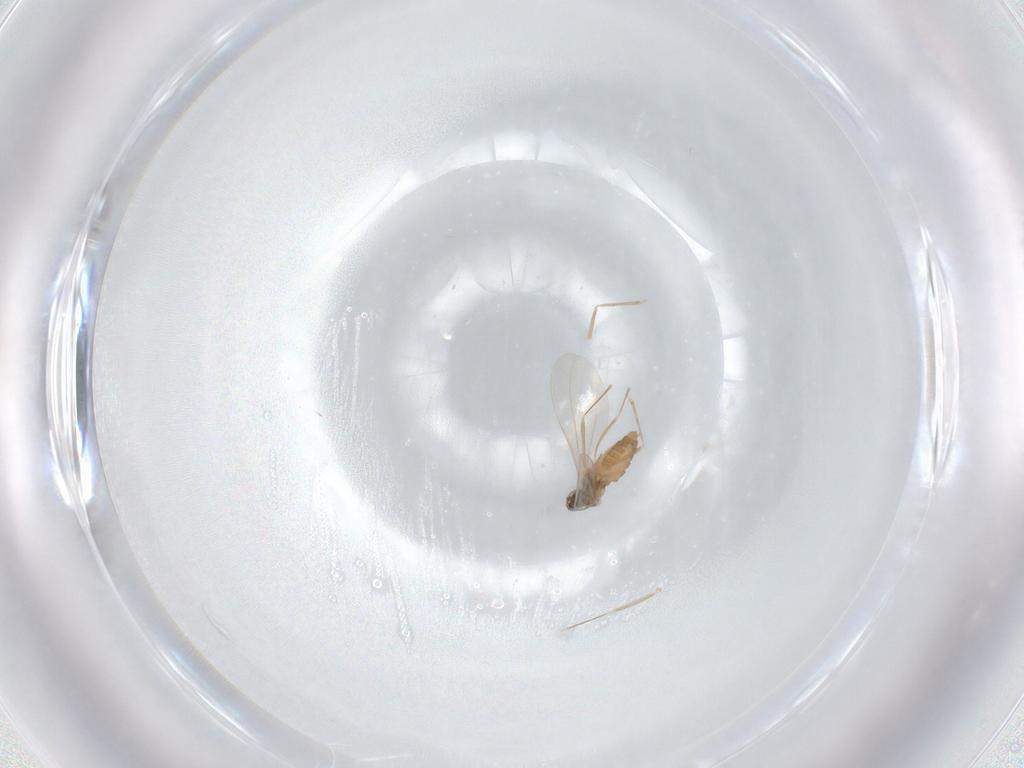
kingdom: Animalia
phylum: Arthropoda
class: Insecta
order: Diptera
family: Cecidomyiidae
